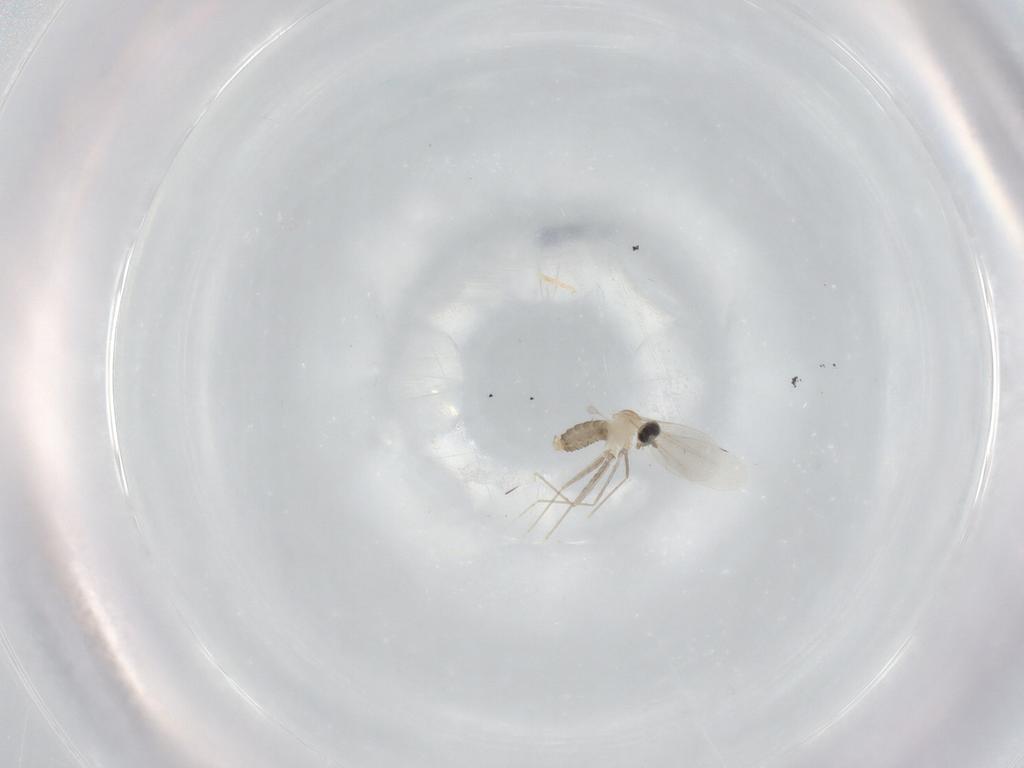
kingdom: Animalia
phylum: Arthropoda
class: Insecta
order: Diptera
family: Cecidomyiidae
